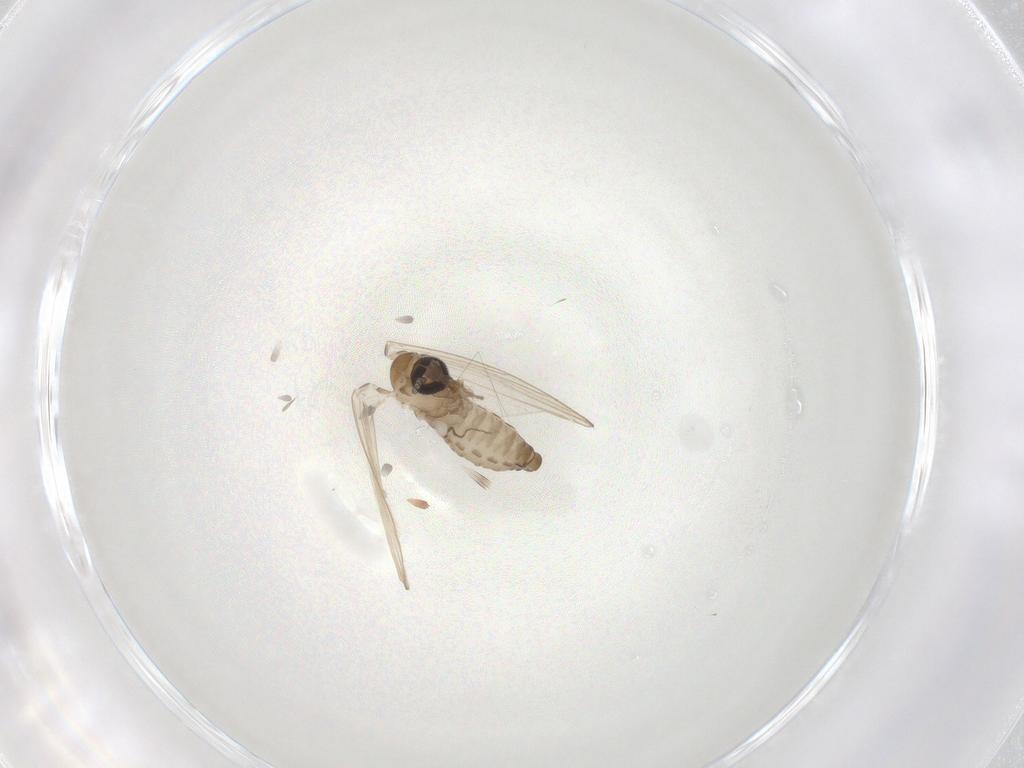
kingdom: Animalia
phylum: Arthropoda
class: Insecta
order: Diptera
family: Psychodidae
